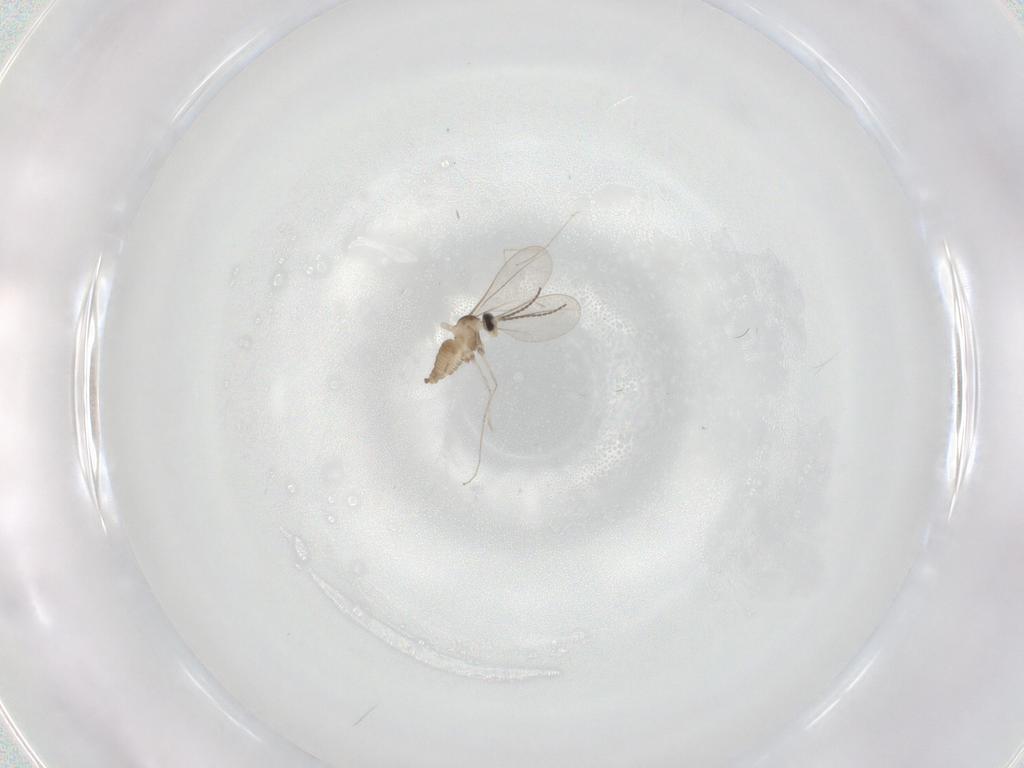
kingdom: Animalia
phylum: Arthropoda
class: Insecta
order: Diptera
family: Cecidomyiidae
